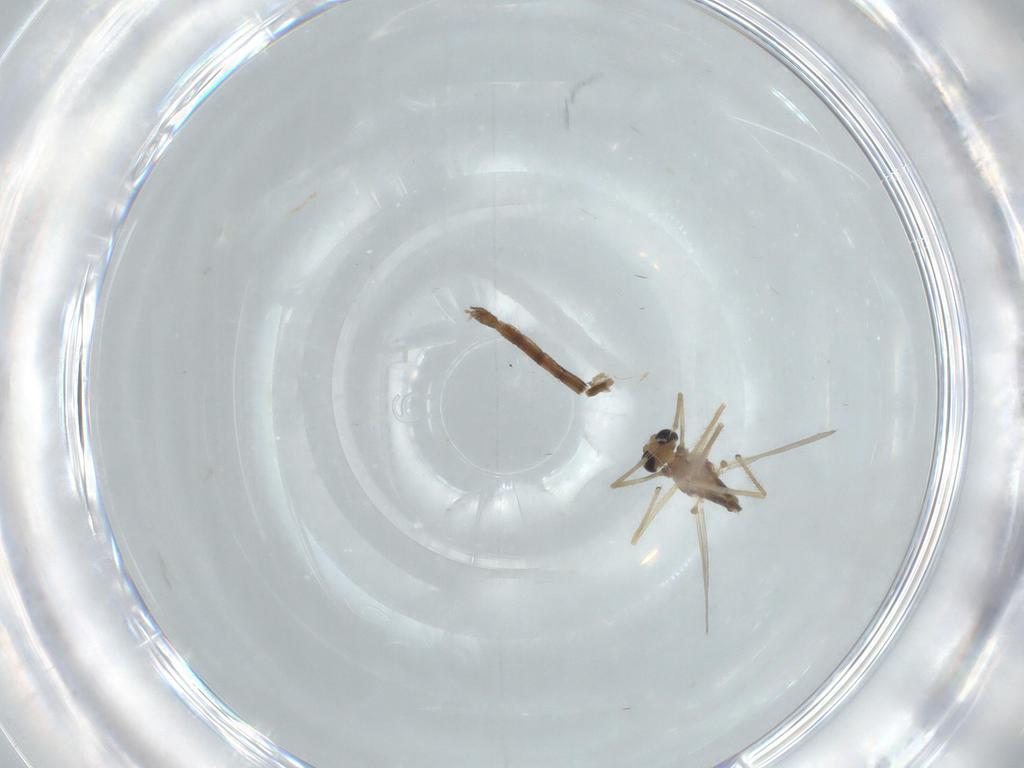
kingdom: Animalia
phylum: Arthropoda
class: Insecta
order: Diptera
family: Chironomidae
